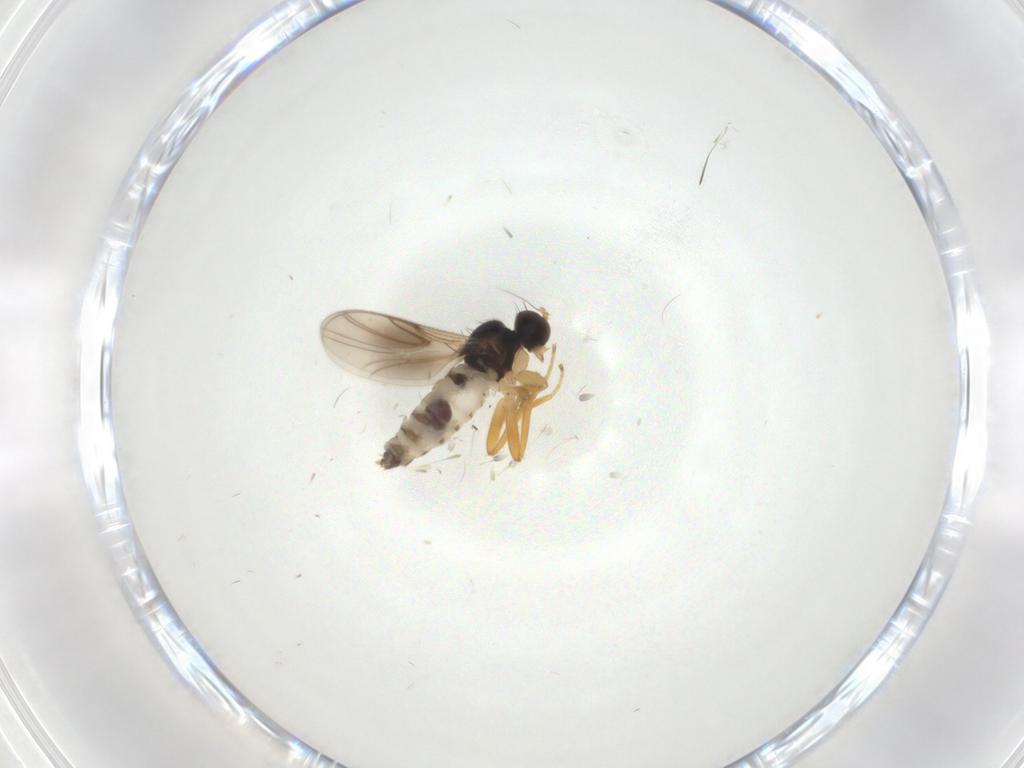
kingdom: Animalia
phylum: Arthropoda
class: Insecta
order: Diptera
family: Hybotidae
